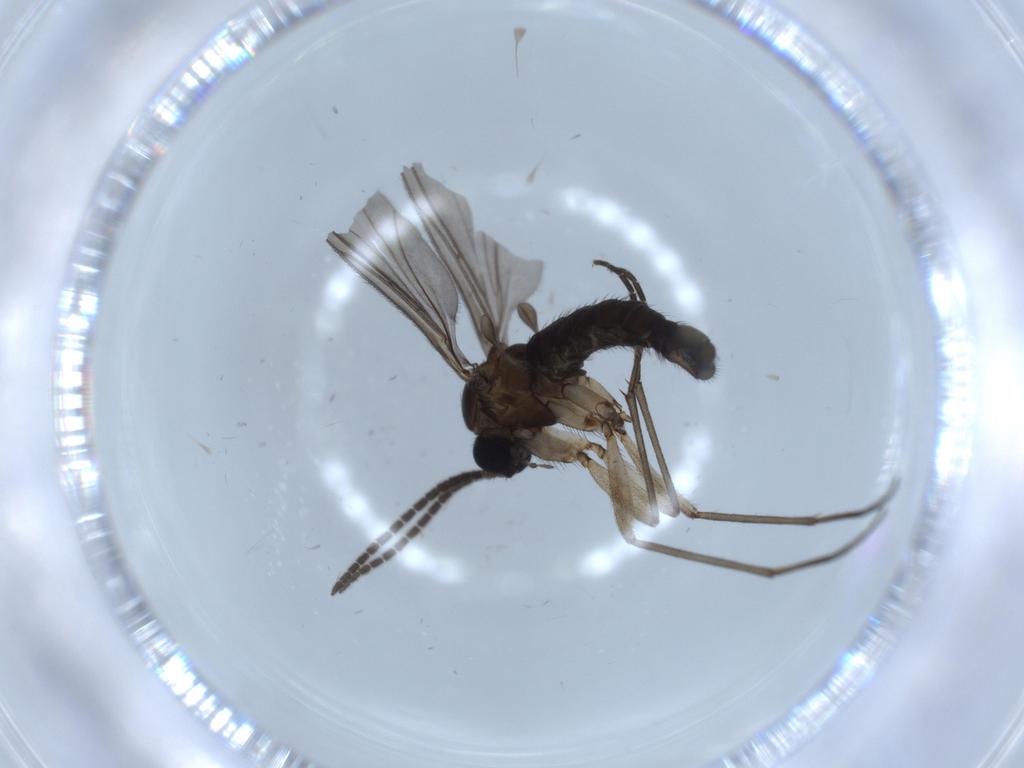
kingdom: Animalia
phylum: Arthropoda
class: Insecta
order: Diptera
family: Sciaridae
